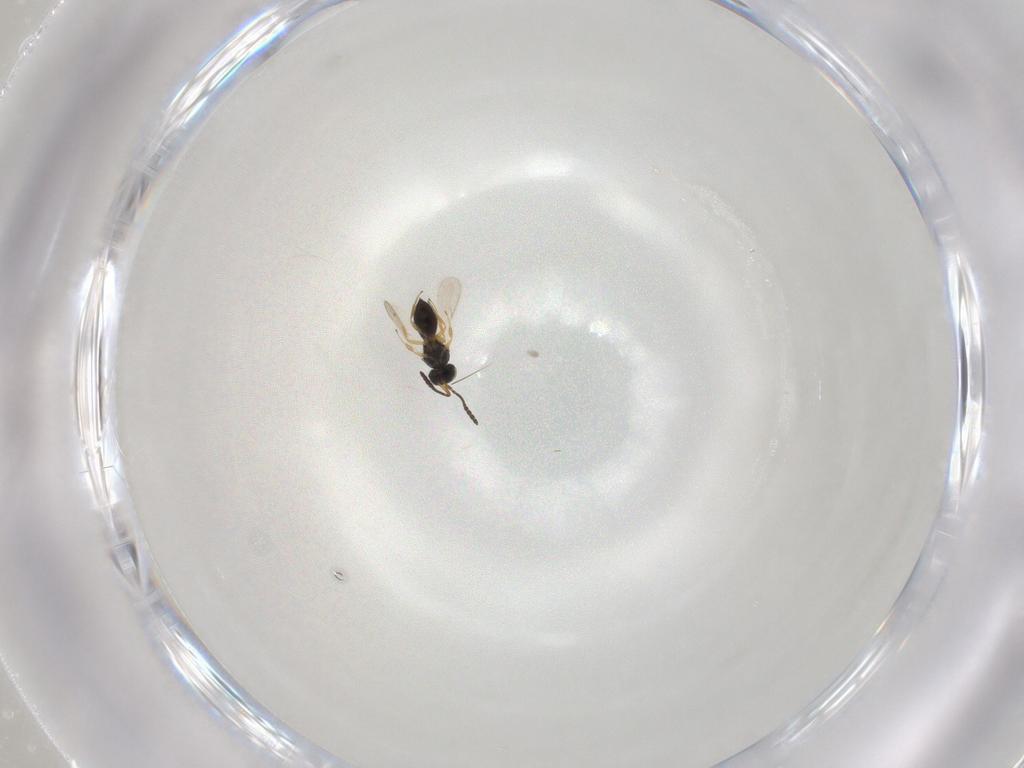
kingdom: Animalia
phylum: Arthropoda
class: Insecta
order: Hymenoptera
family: Scelionidae
